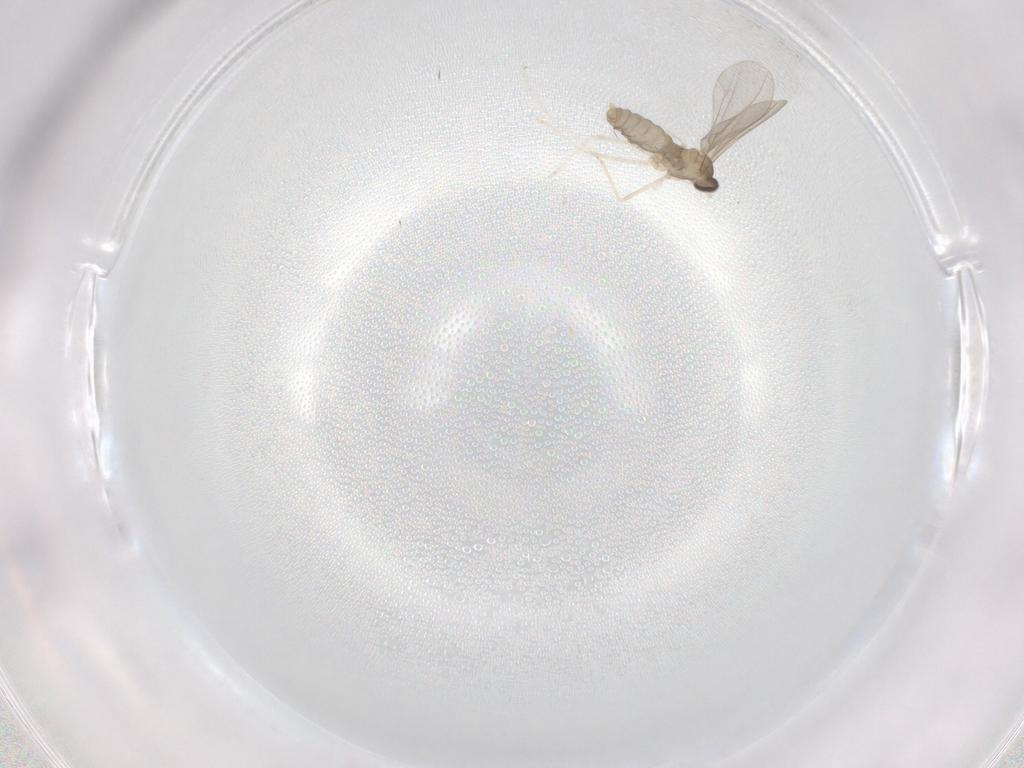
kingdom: Animalia
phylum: Arthropoda
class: Insecta
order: Diptera
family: Cecidomyiidae
